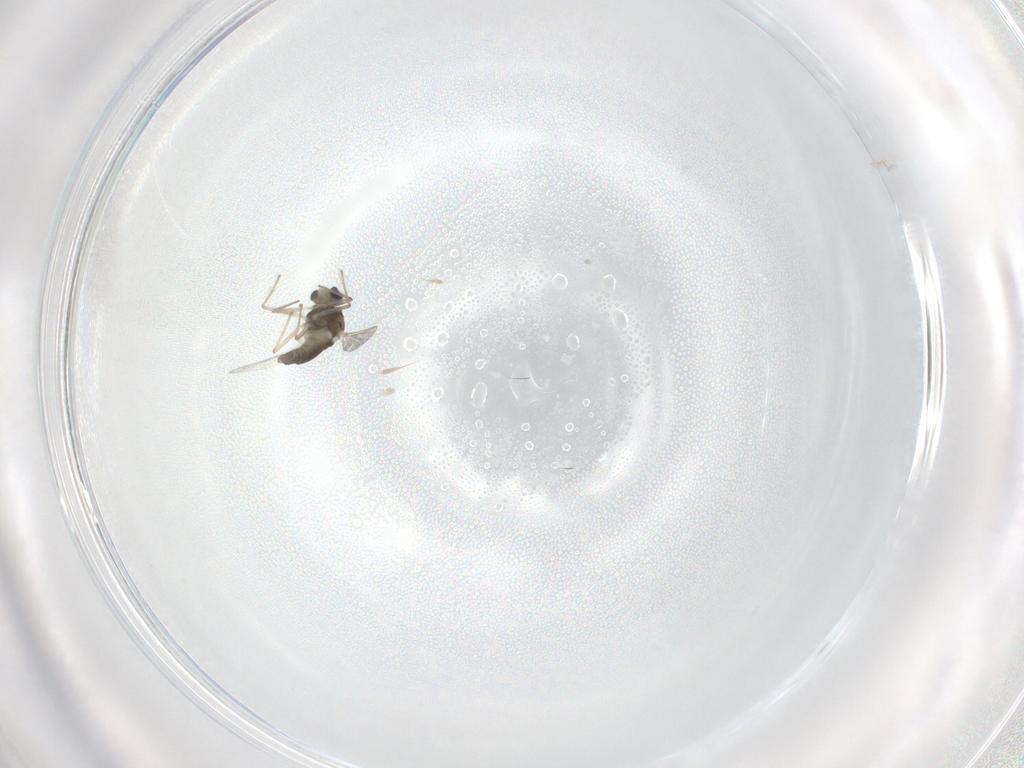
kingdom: Animalia
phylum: Arthropoda
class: Insecta
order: Diptera
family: Chironomidae
